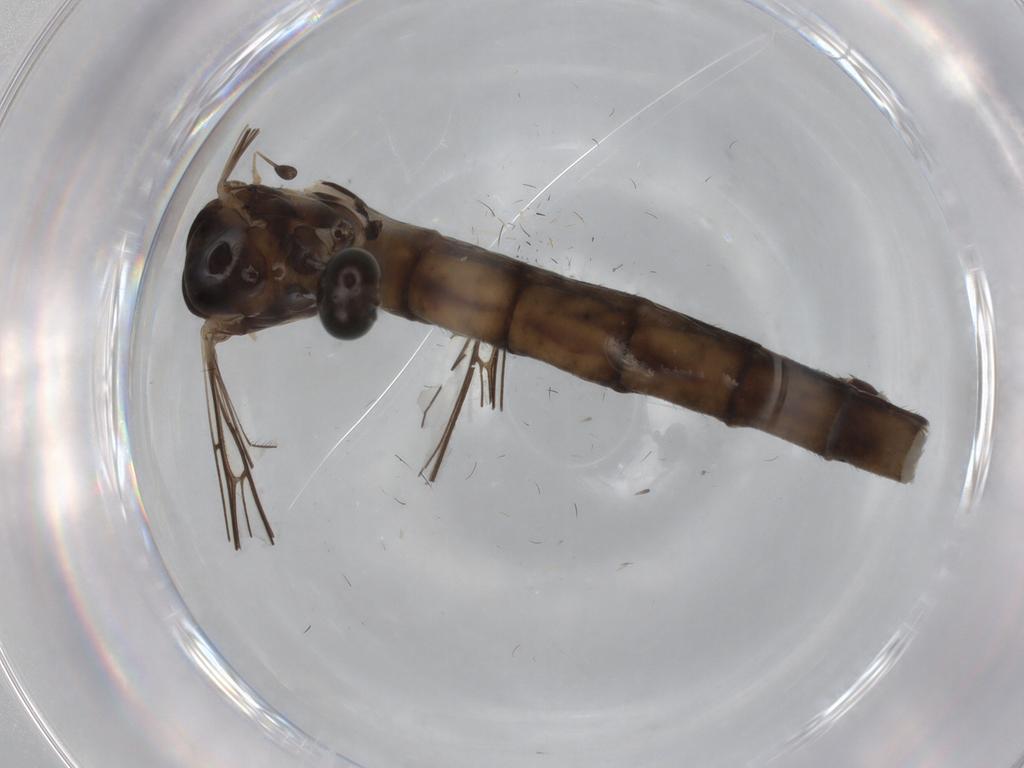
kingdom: Animalia
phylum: Arthropoda
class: Insecta
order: Diptera
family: Limoniidae
